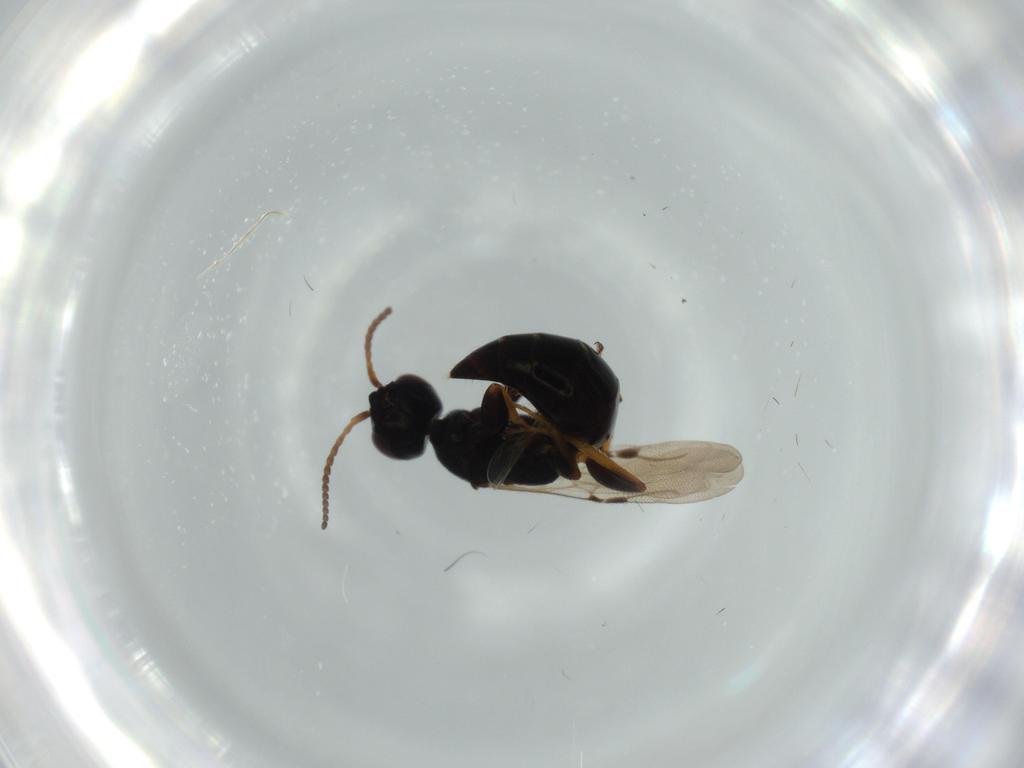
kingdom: Animalia
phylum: Arthropoda
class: Insecta
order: Hymenoptera
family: Bethylidae
